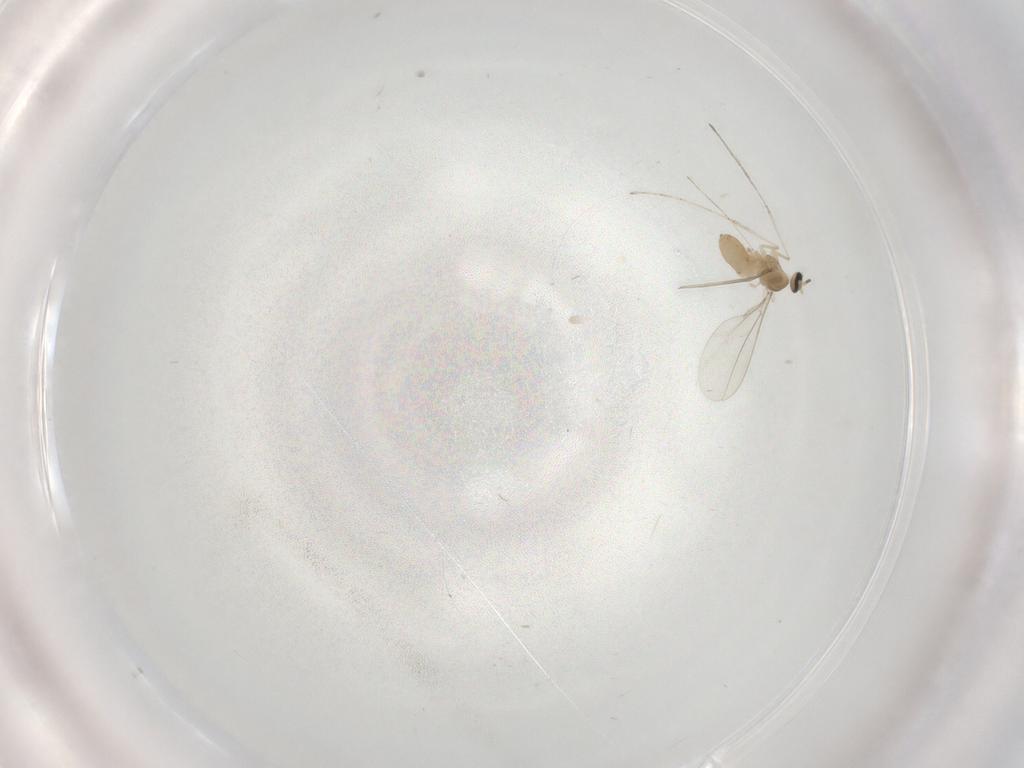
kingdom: Animalia
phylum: Arthropoda
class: Insecta
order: Diptera
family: Cecidomyiidae
